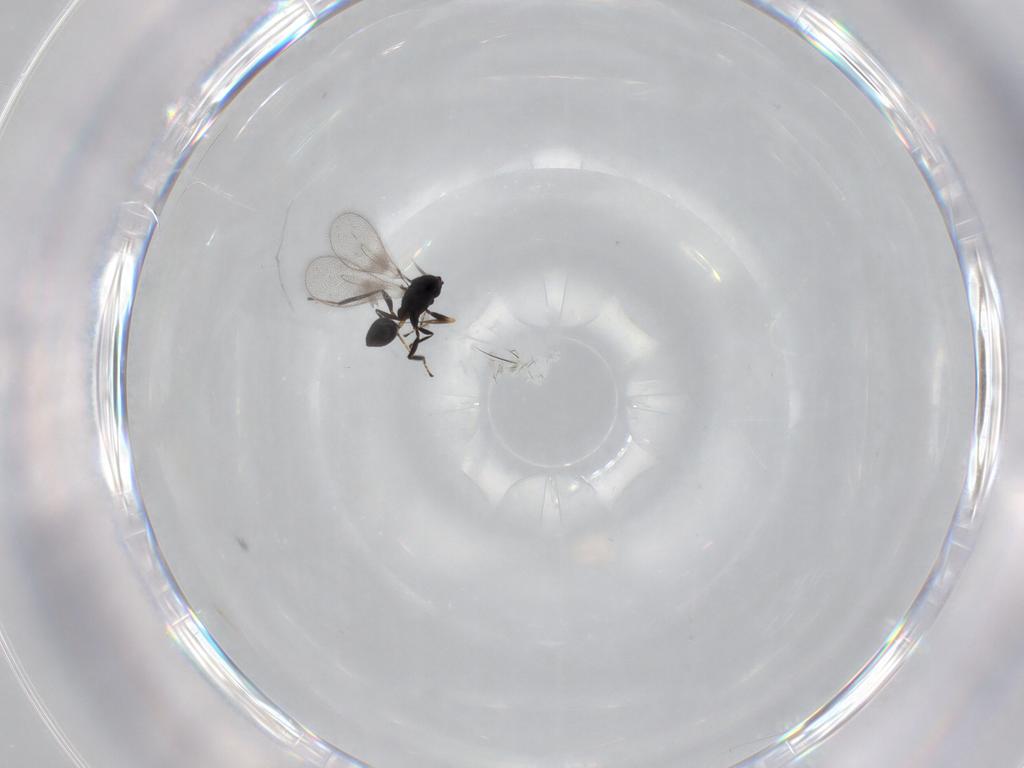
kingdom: Animalia
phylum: Arthropoda
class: Insecta
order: Hymenoptera
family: Mymaridae
